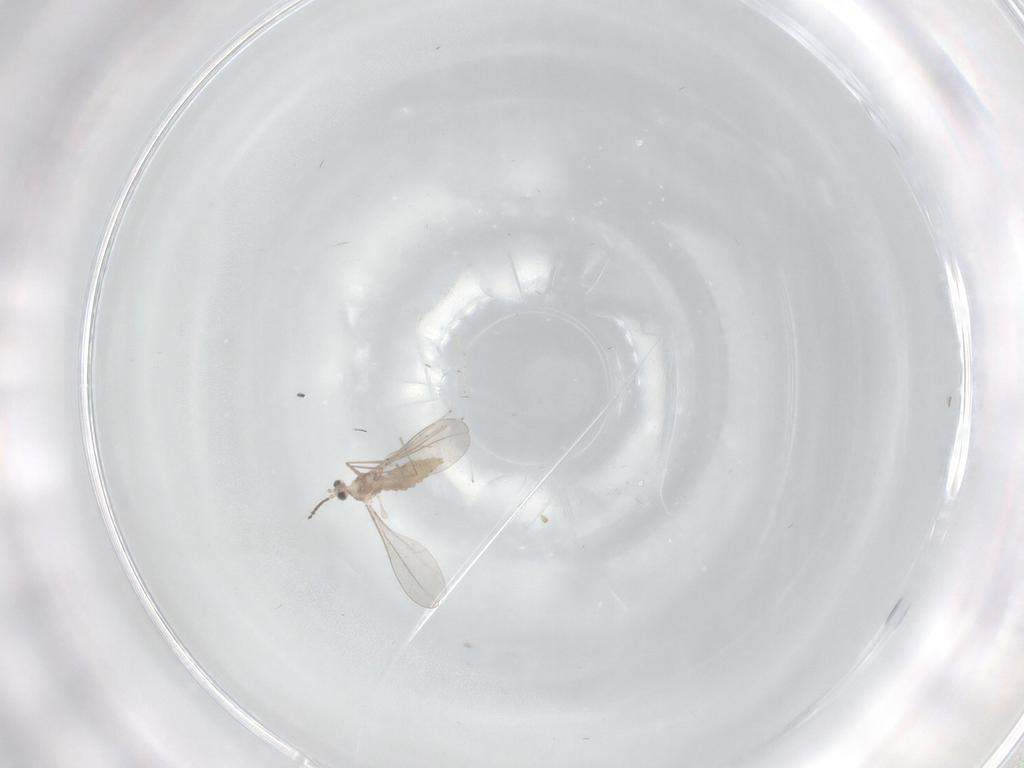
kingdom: Animalia
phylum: Arthropoda
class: Insecta
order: Diptera
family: Cecidomyiidae
